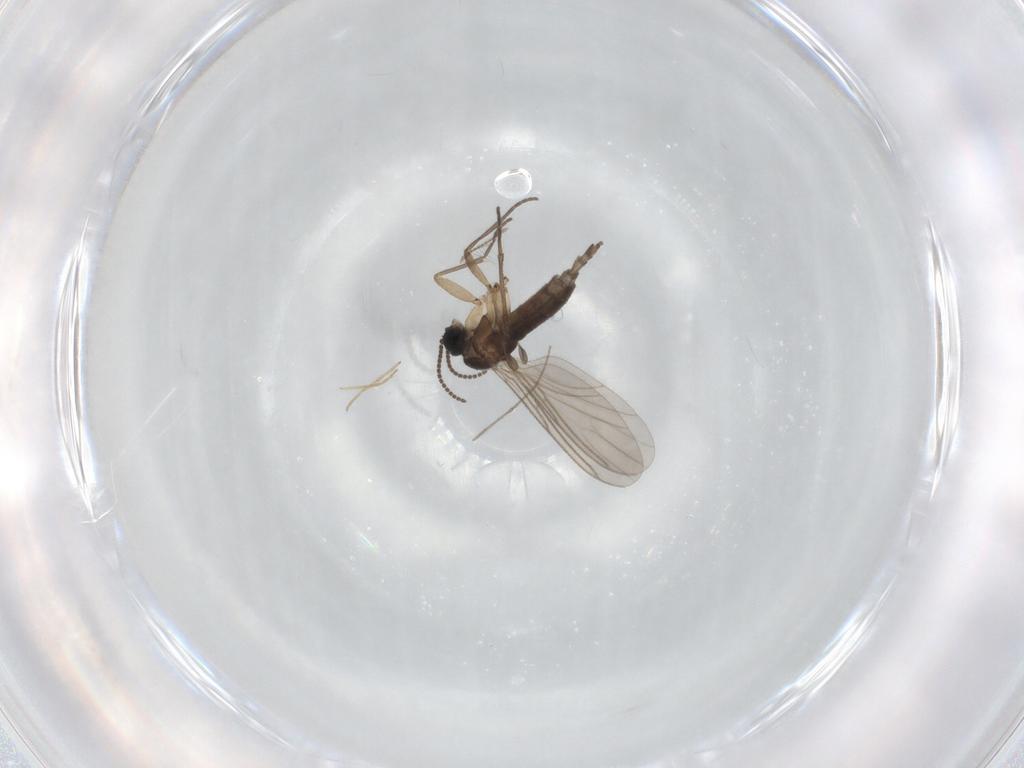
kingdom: Animalia
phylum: Arthropoda
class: Insecta
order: Diptera
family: Chironomidae
